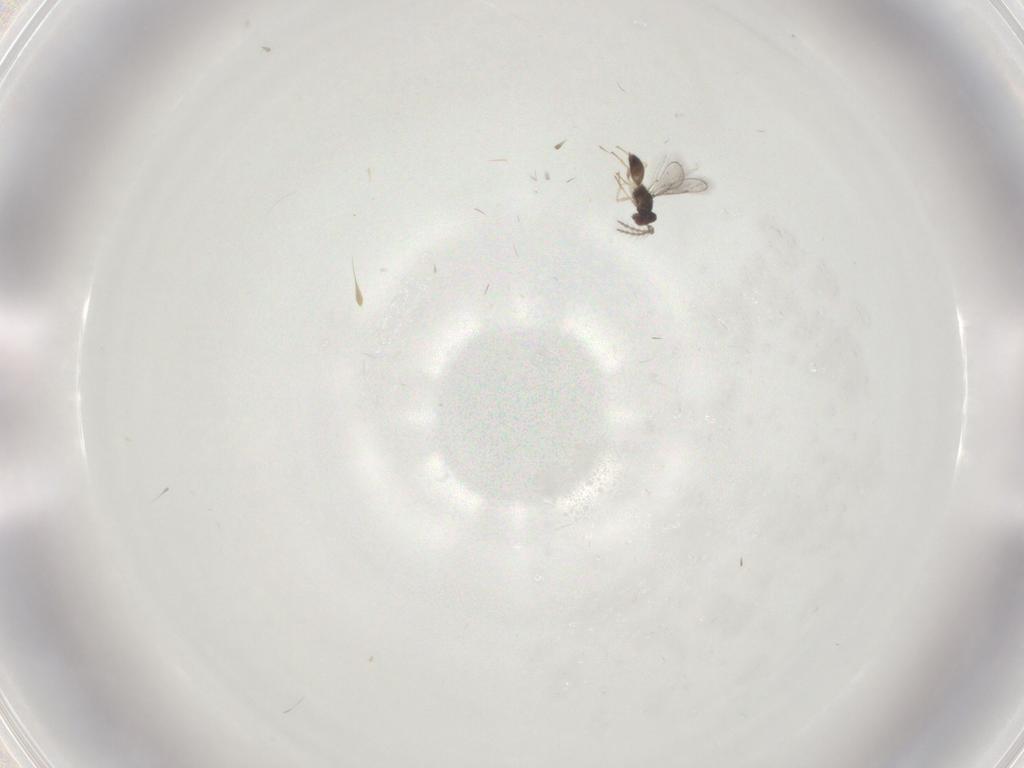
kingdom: Animalia
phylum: Arthropoda
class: Insecta
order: Hymenoptera
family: Eulophidae
